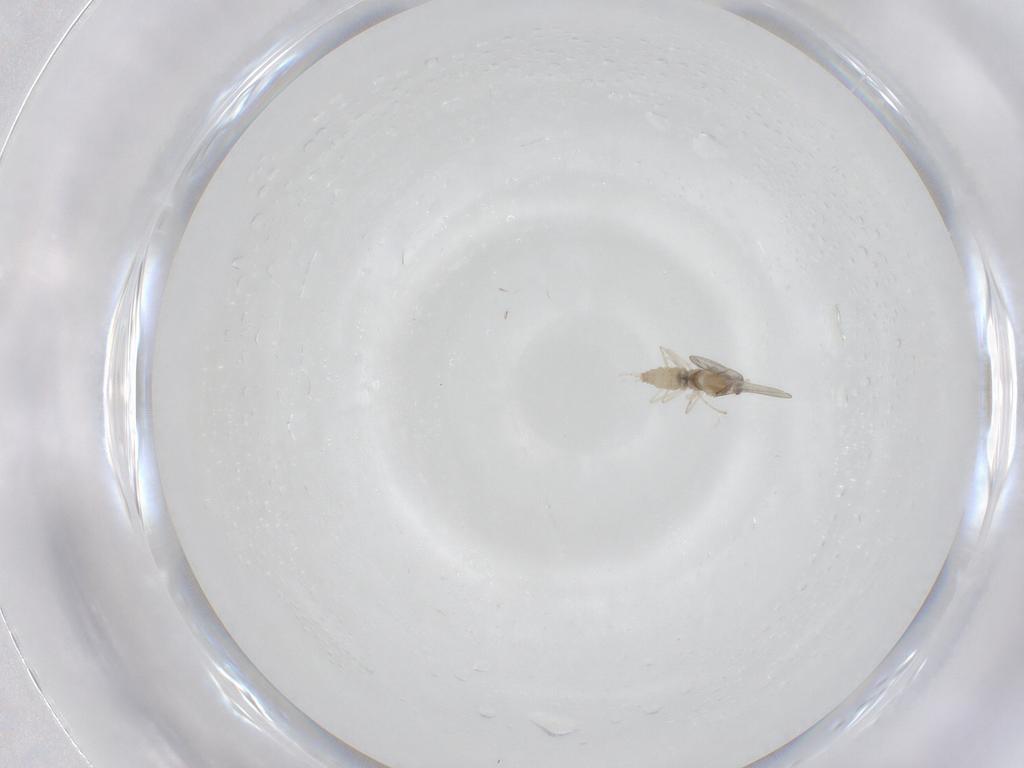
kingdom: Animalia
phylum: Arthropoda
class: Insecta
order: Diptera
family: Cecidomyiidae
